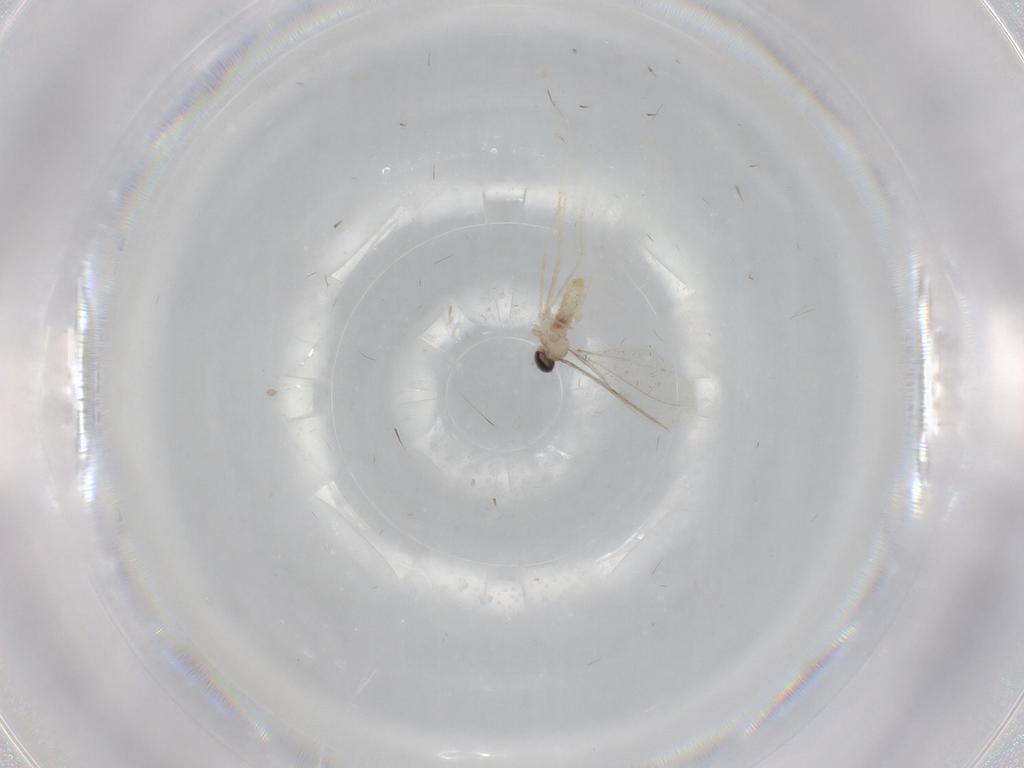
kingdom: Animalia
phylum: Arthropoda
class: Insecta
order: Diptera
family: Cecidomyiidae
